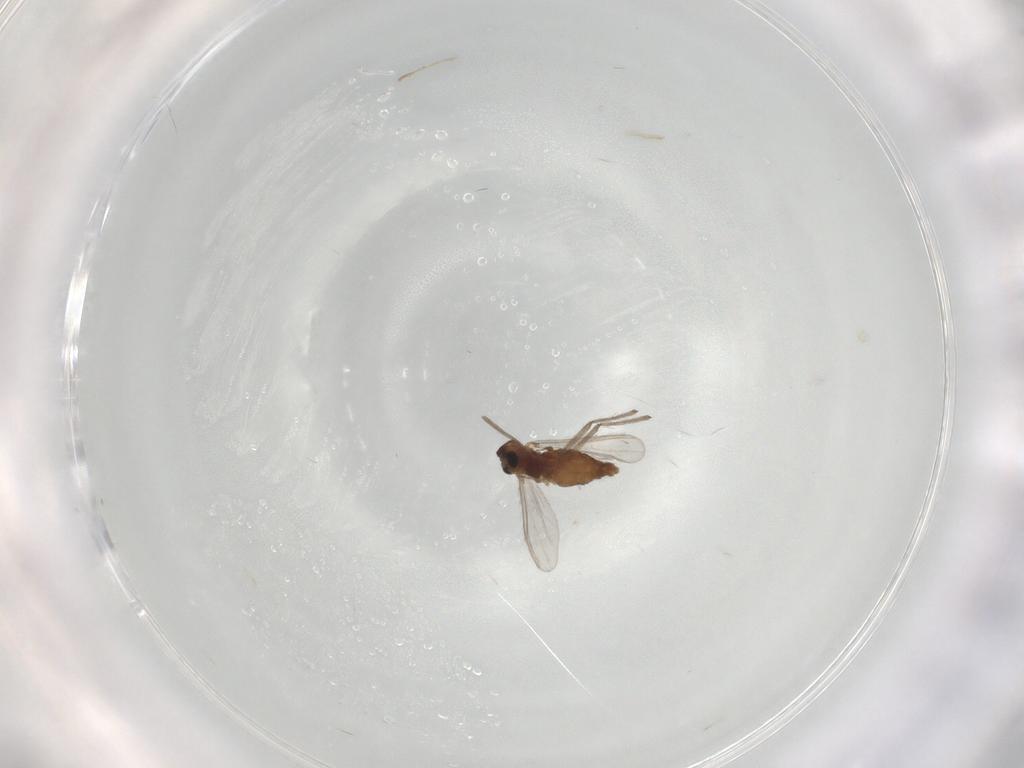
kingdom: Animalia
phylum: Arthropoda
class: Insecta
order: Diptera
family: Chironomidae
